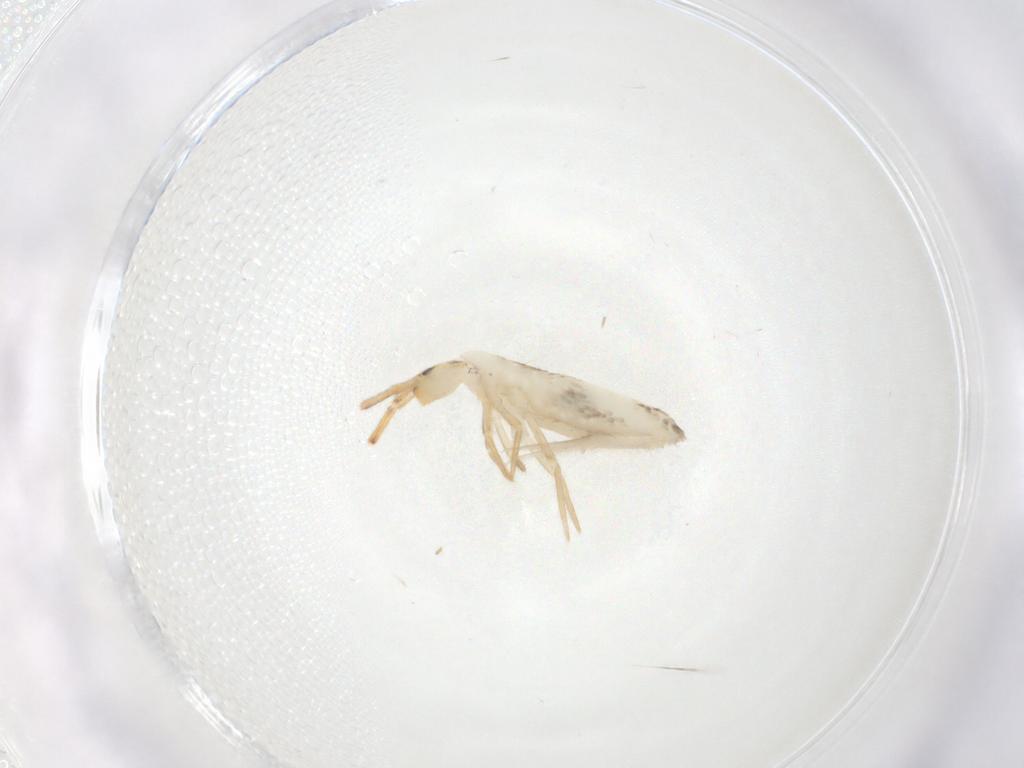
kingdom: Animalia
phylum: Arthropoda
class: Collembola
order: Entomobryomorpha
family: Entomobryidae
